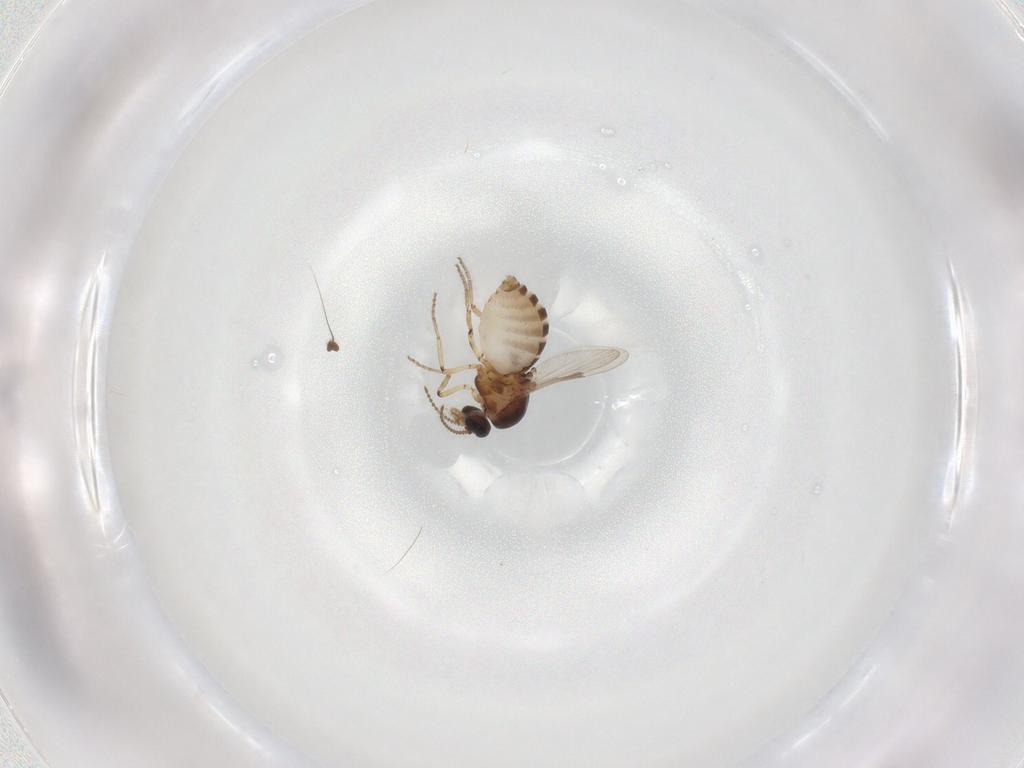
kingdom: Animalia
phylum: Arthropoda
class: Insecta
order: Diptera
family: Ceratopogonidae
